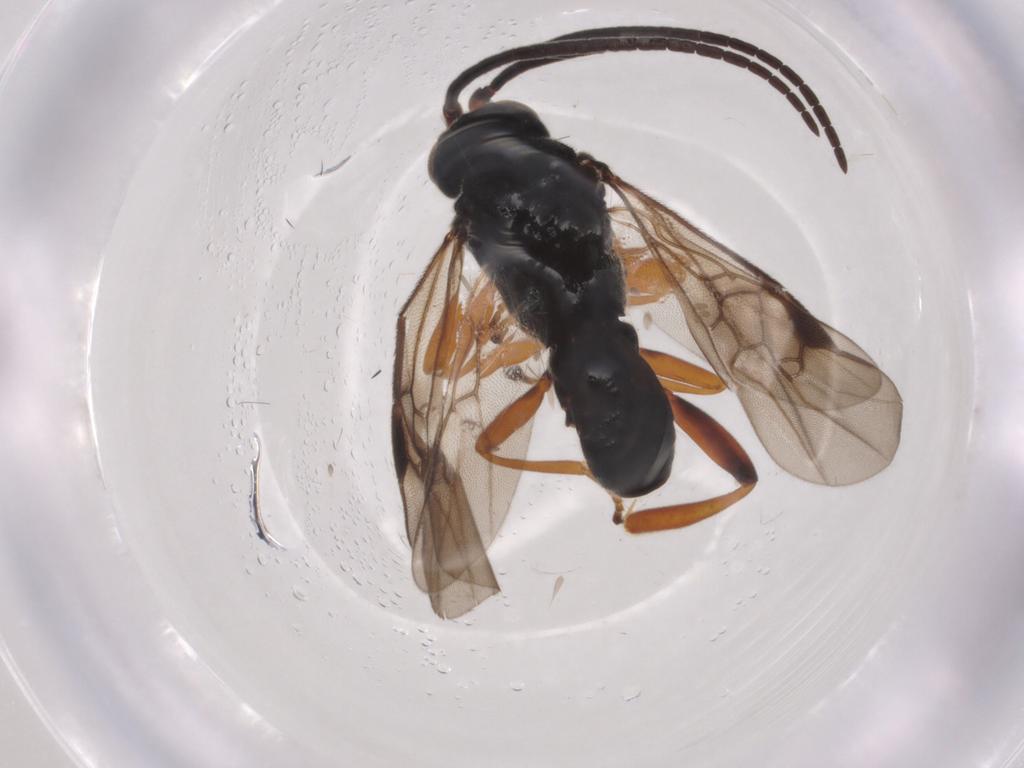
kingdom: Animalia
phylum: Arthropoda
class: Insecta
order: Hymenoptera
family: Braconidae
